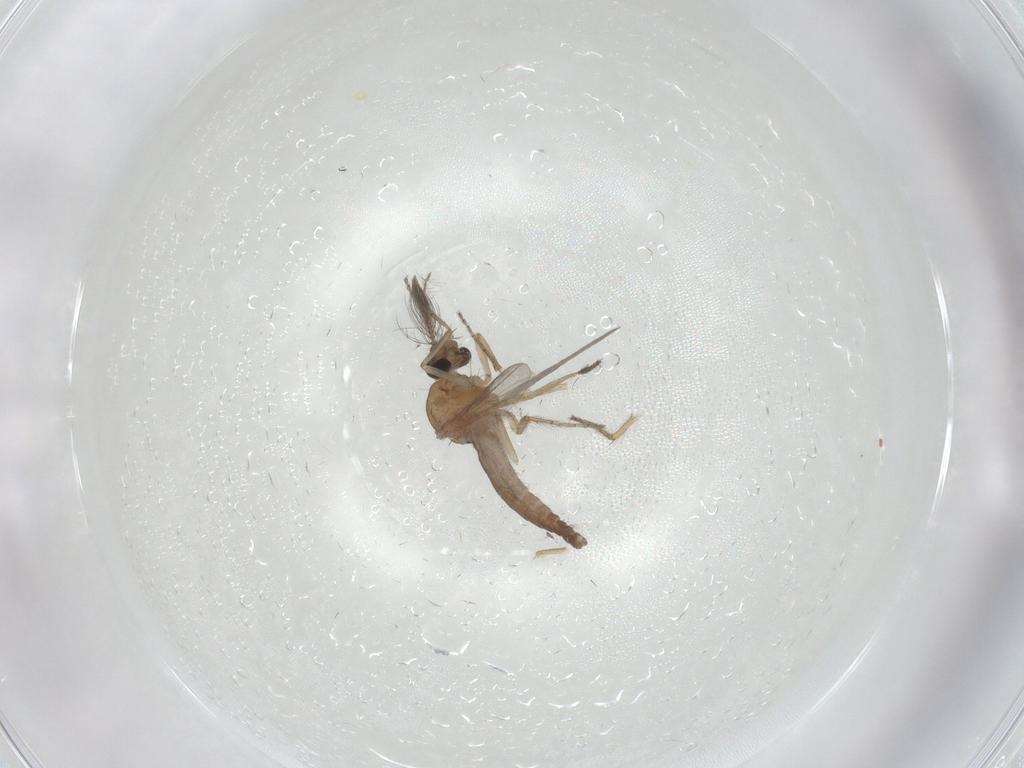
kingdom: Animalia
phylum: Arthropoda
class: Insecta
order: Diptera
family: Ceratopogonidae
